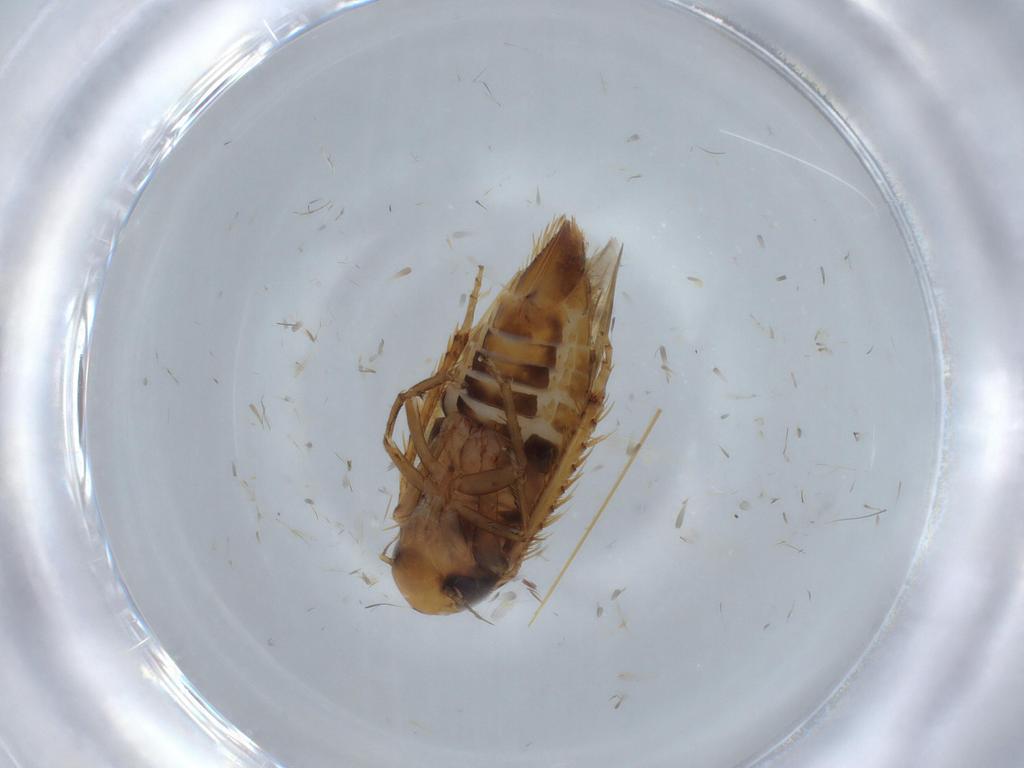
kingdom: Animalia
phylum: Arthropoda
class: Insecta
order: Hemiptera
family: Cicadellidae
